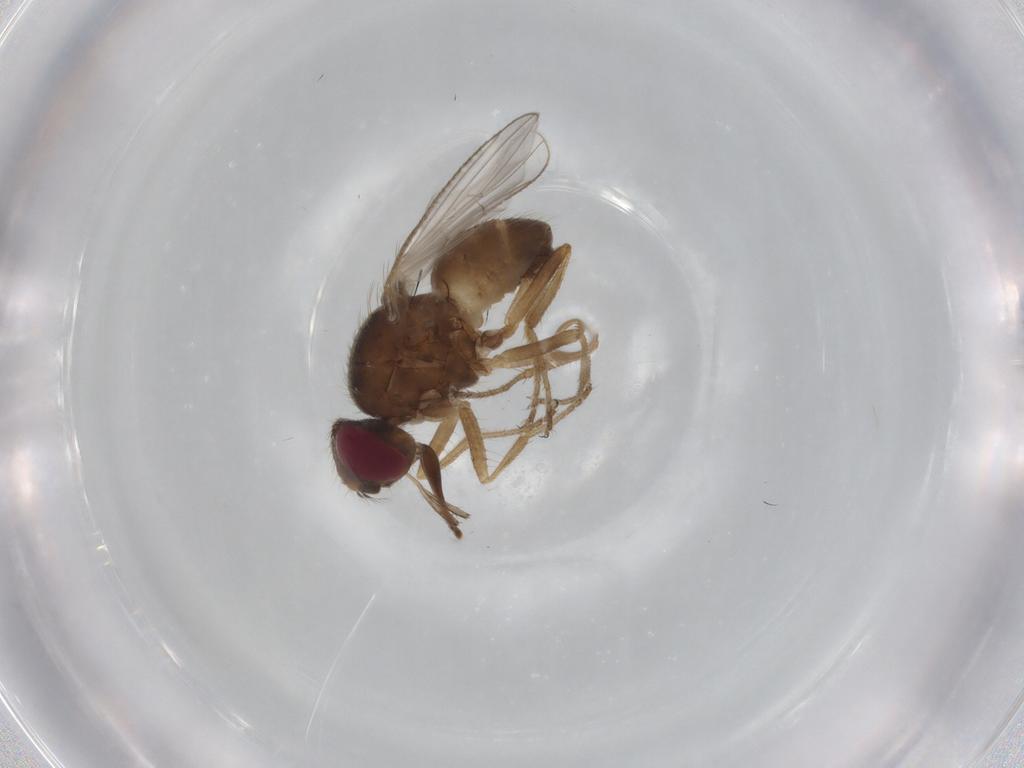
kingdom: Animalia
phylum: Arthropoda
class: Insecta
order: Diptera
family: Muscidae
